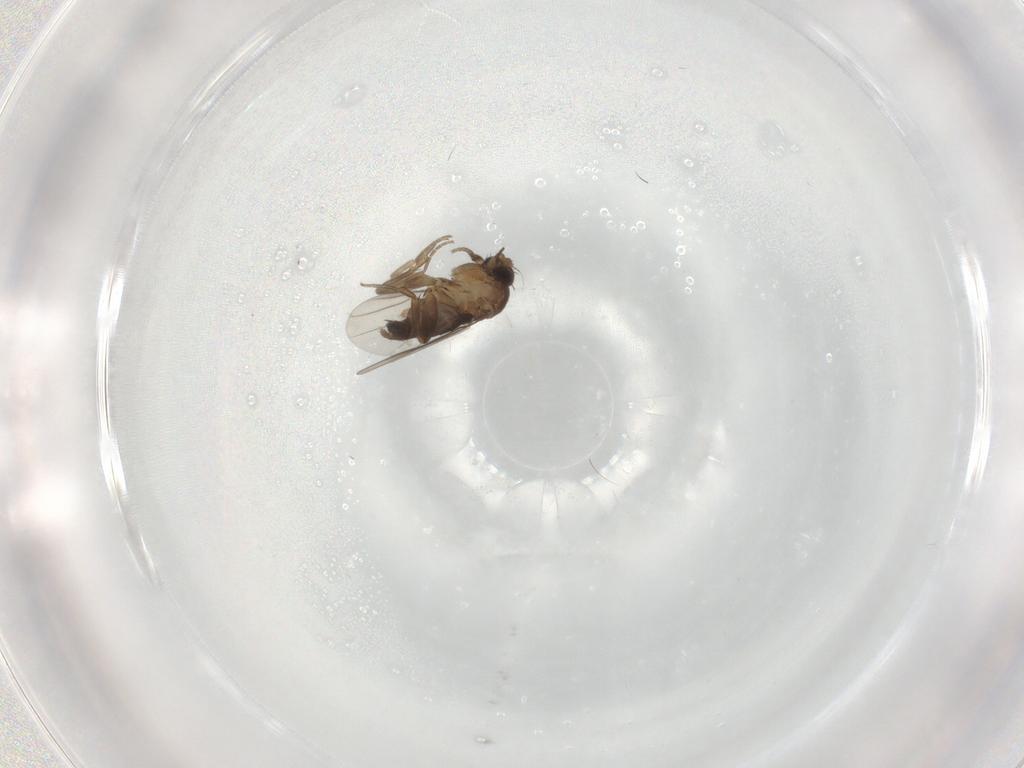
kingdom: Animalia
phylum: Arthropoda
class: Insecta
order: Diptera
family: Phoridae
